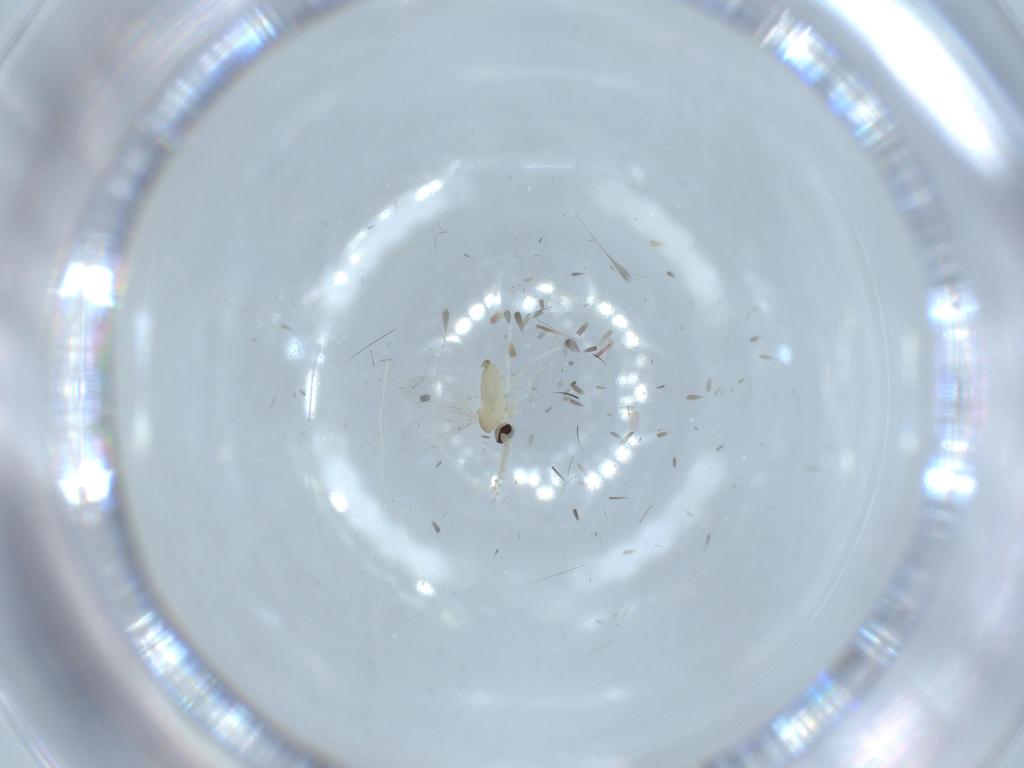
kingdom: Animalia
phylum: Arthropoda
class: Insecta
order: Diptera
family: Cecidomyiidae
